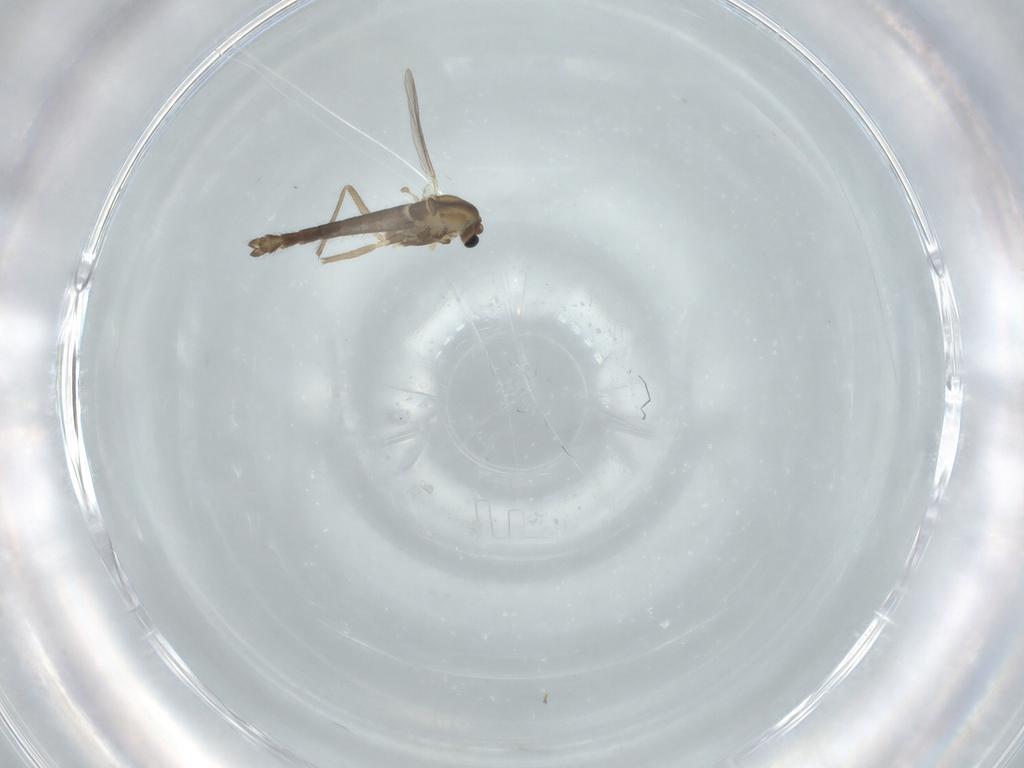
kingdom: Animalia
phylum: Arthropoda
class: Insecta
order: Diptera
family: Chironomidae
